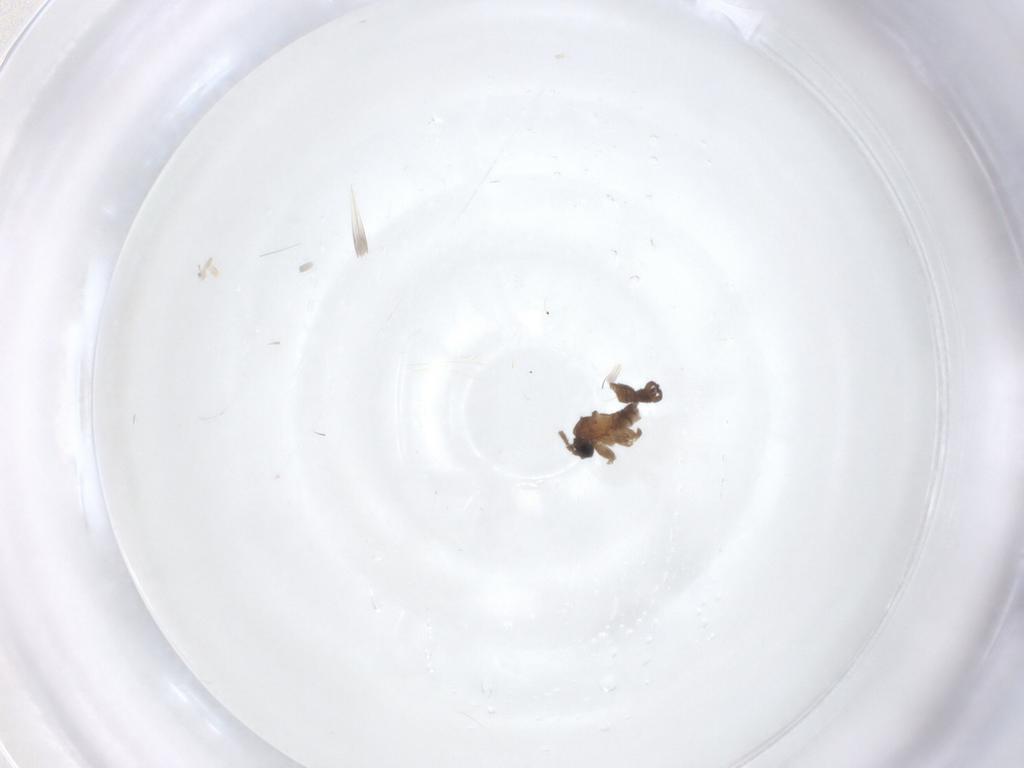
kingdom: Animalia
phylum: Arthropoda
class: Insecta
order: Diptera
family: Sciaridae
